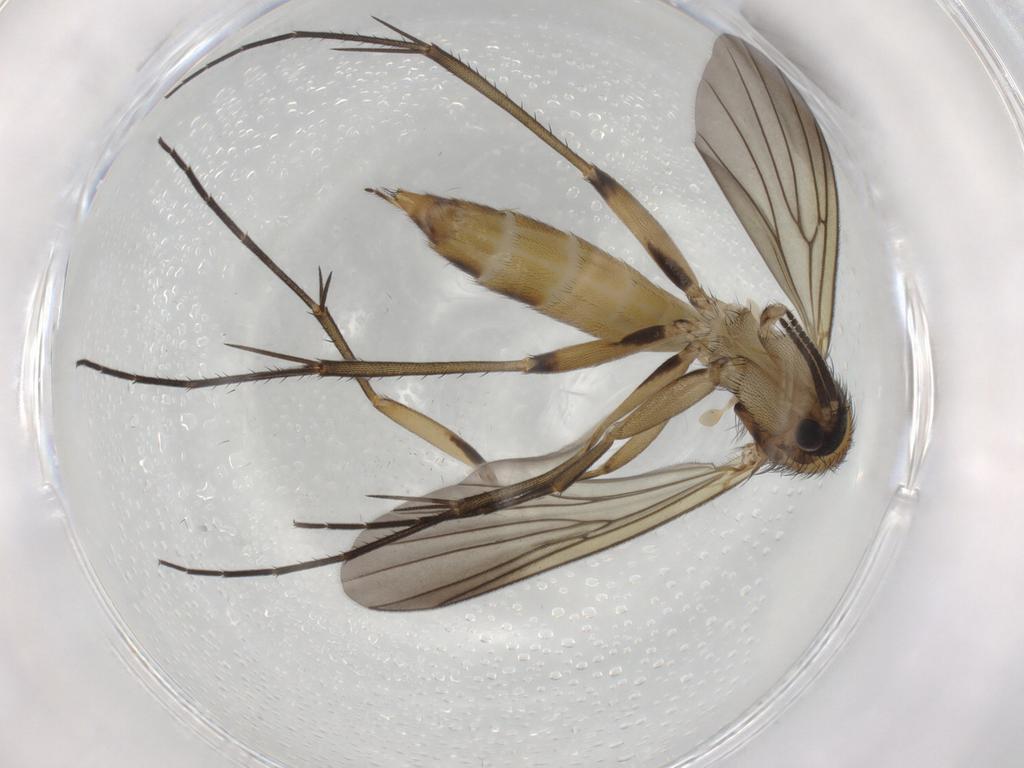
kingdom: Animalia
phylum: Arthropoda
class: Insecta
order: Diptera
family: Mycetophilidae
